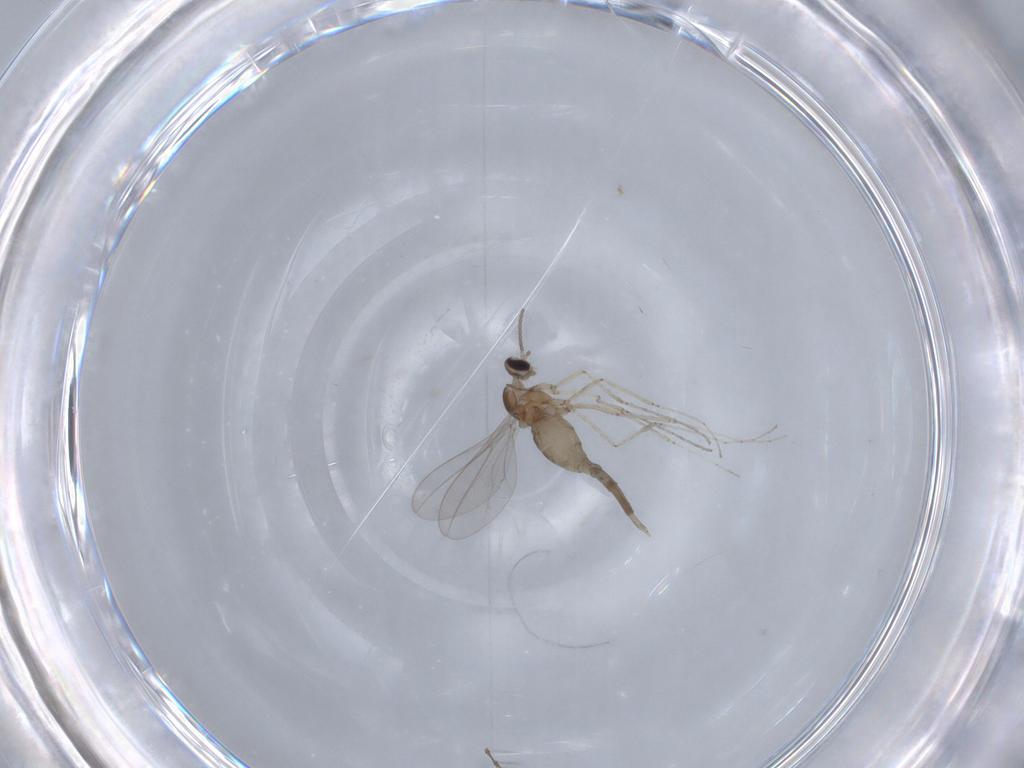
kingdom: Animalia
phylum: Arthropoda
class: Insecta
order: Diptera
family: Cecidomyiidae
